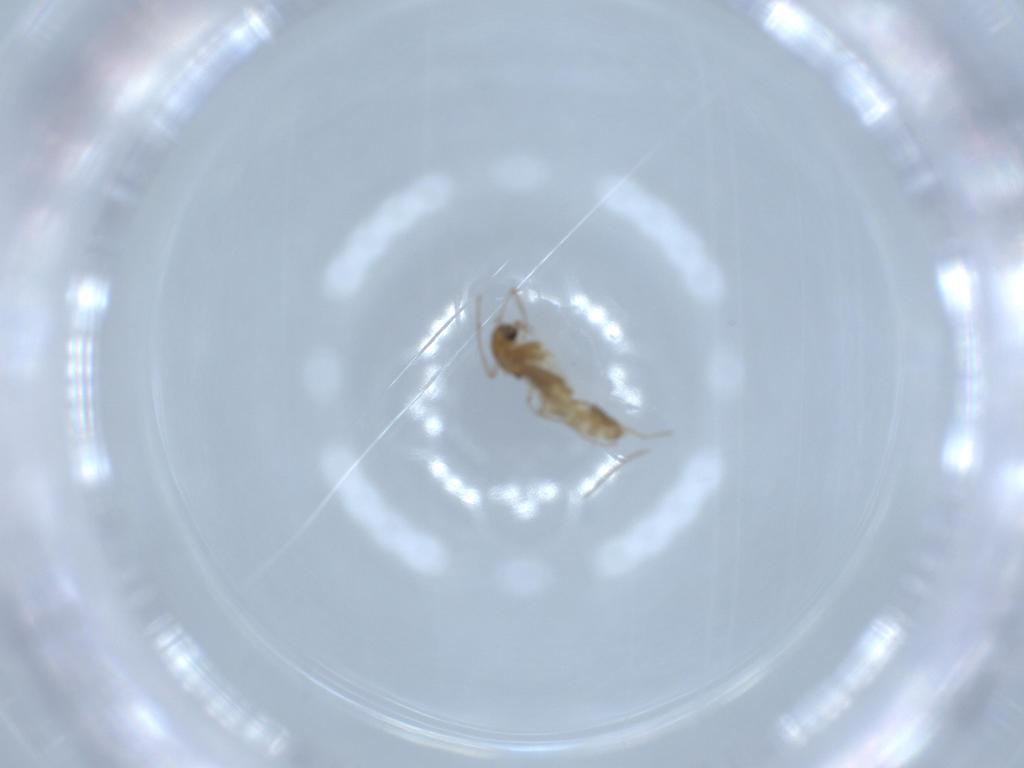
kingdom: Animalia
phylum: Arthropoda
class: Insecta
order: Diptera
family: Chironomidae
